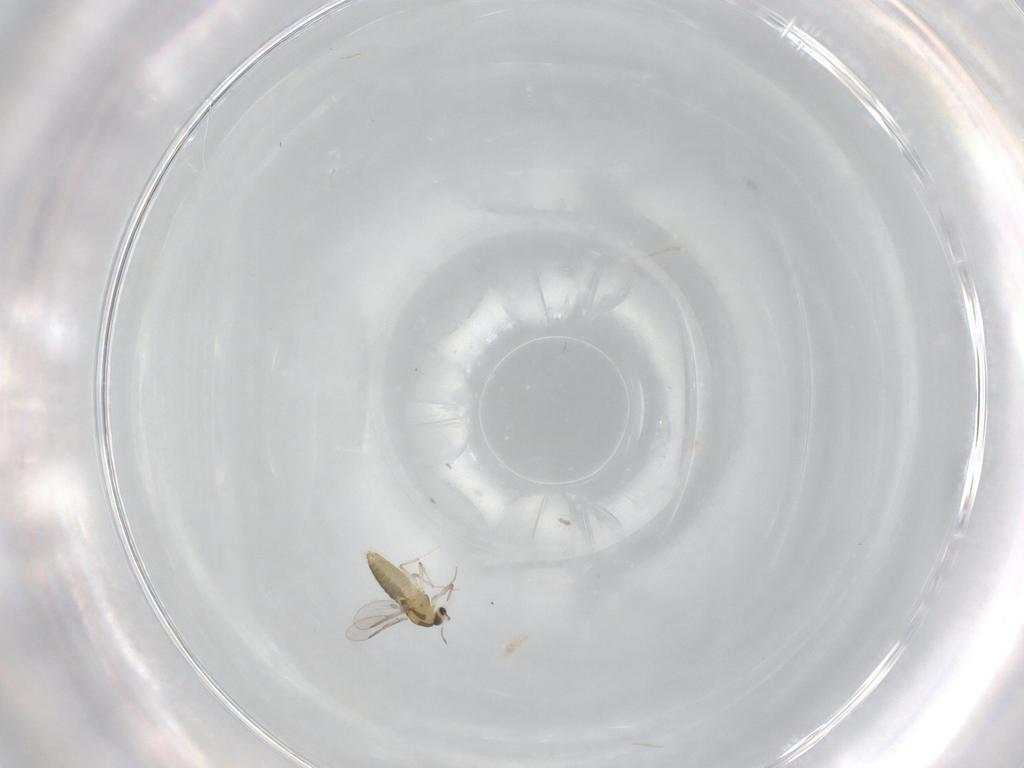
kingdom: Animalia
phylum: Arthropoda
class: Insecta
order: Diptera
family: Chironomidae
